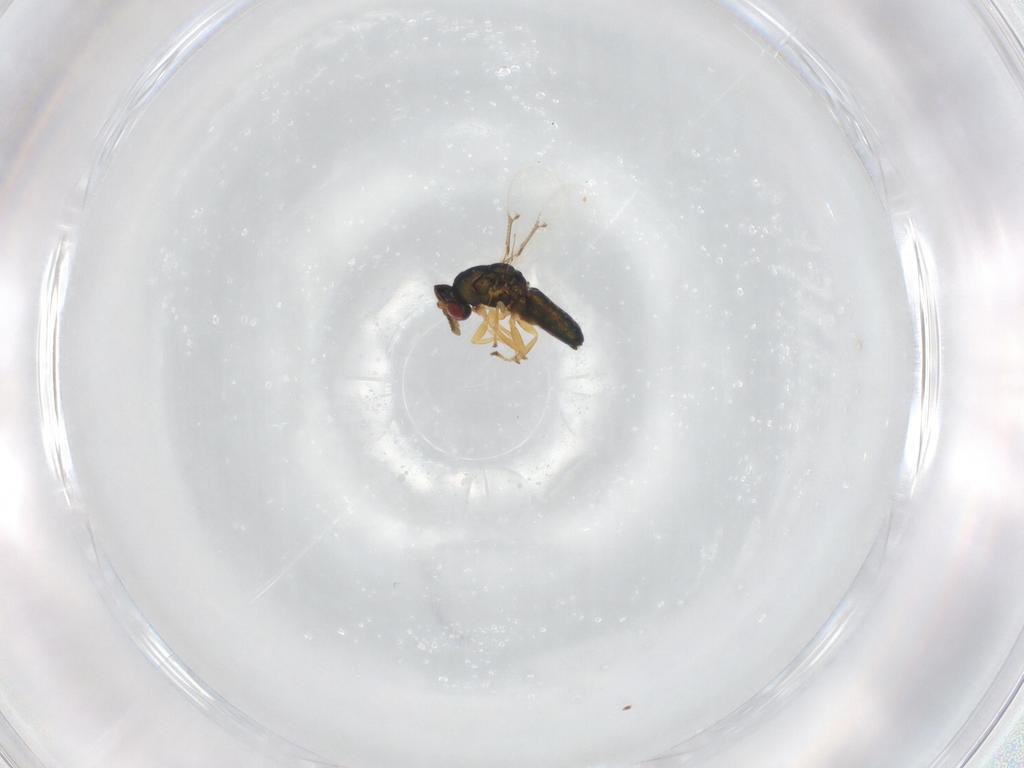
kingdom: Animalia
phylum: Arthropoda
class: Insecta
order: Hymenoptera
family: Eulophidae
